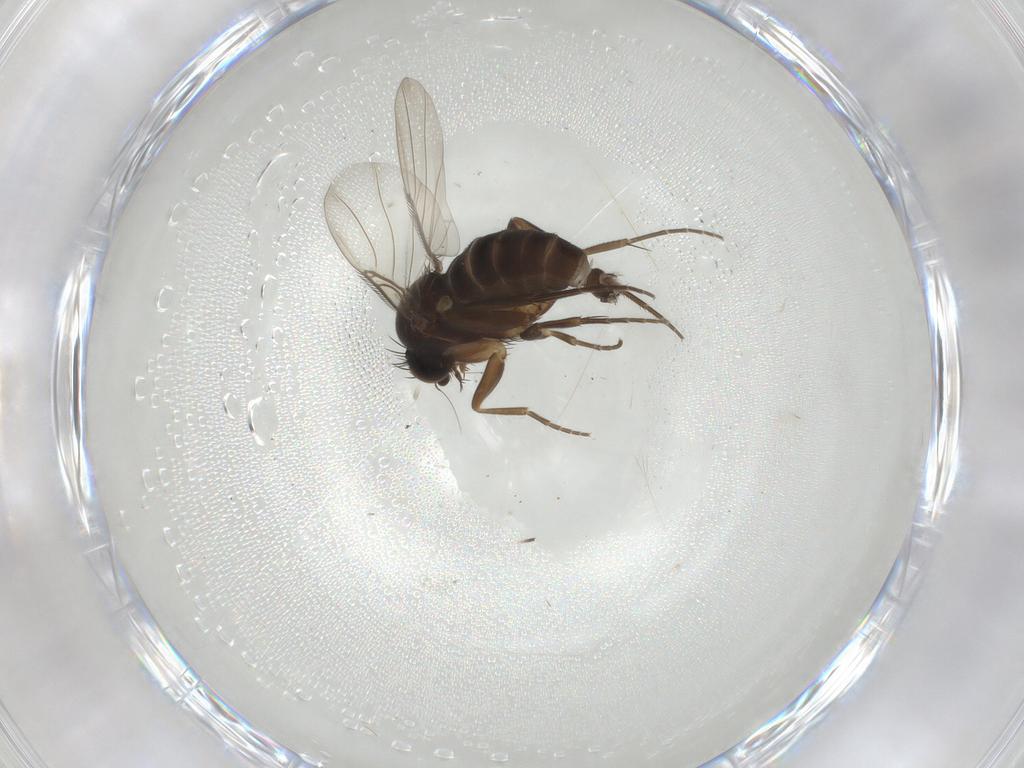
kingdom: Animalia
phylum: Arthropoda
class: Insecta
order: Diptera
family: Phoridae
